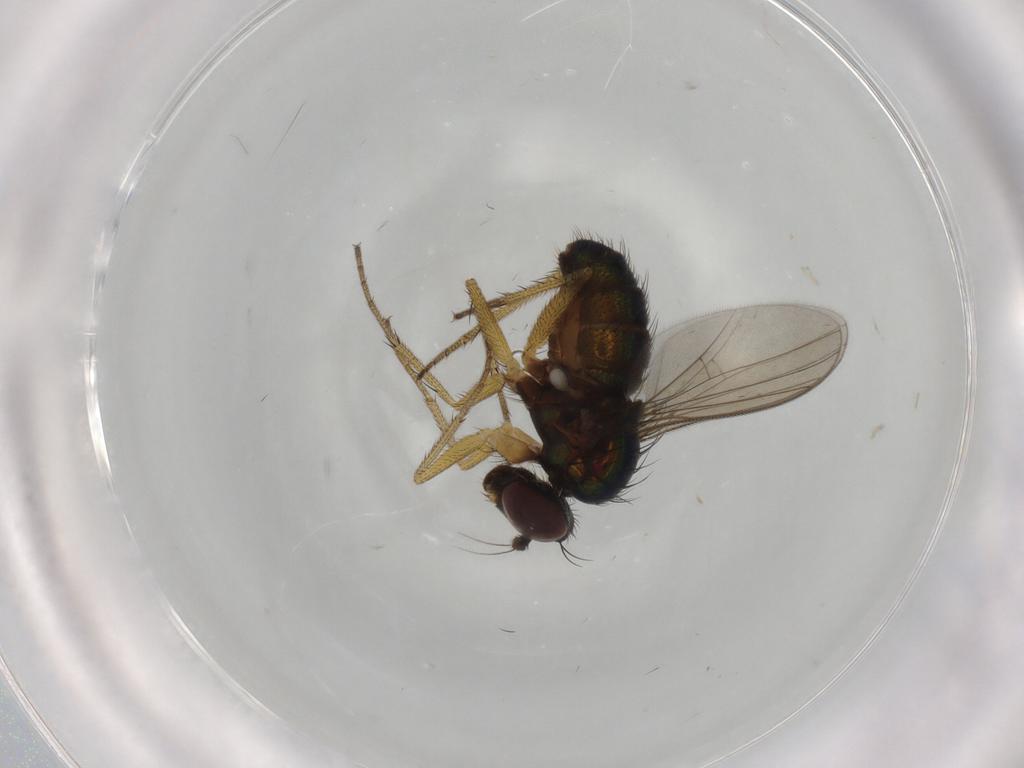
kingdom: Animalia
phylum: Arthropoda
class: Insecta
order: Diptera
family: Dolichopodidae
